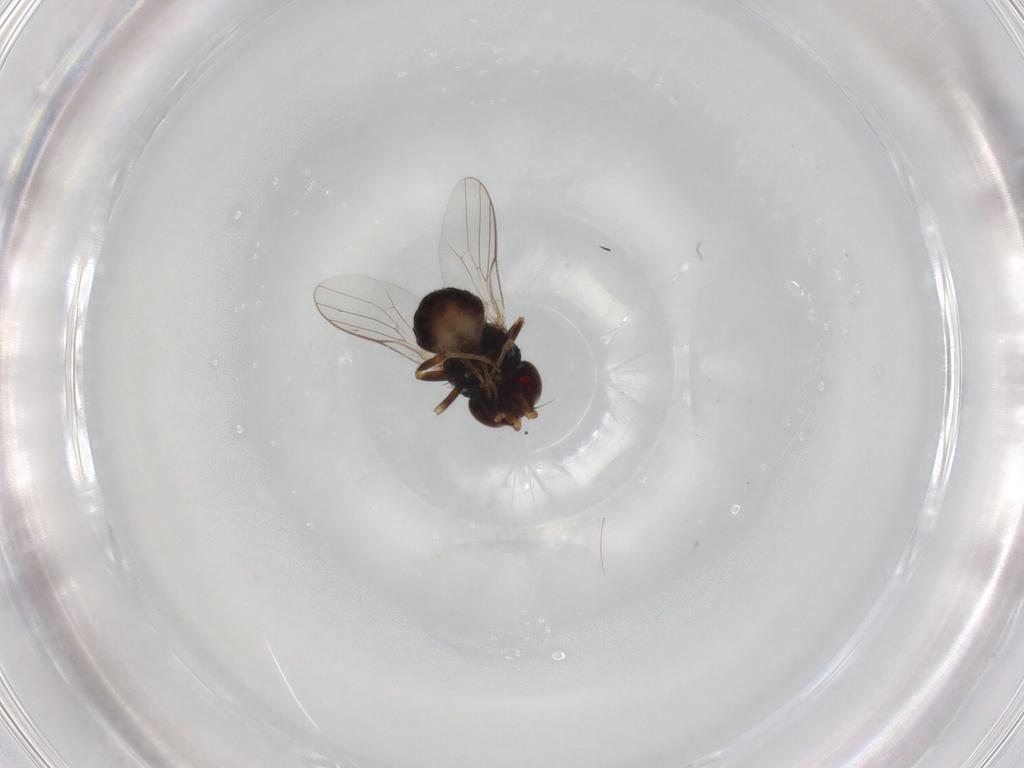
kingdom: Animalia
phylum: Arthropoda
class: Insecta
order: Diptera
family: Chloropidae
